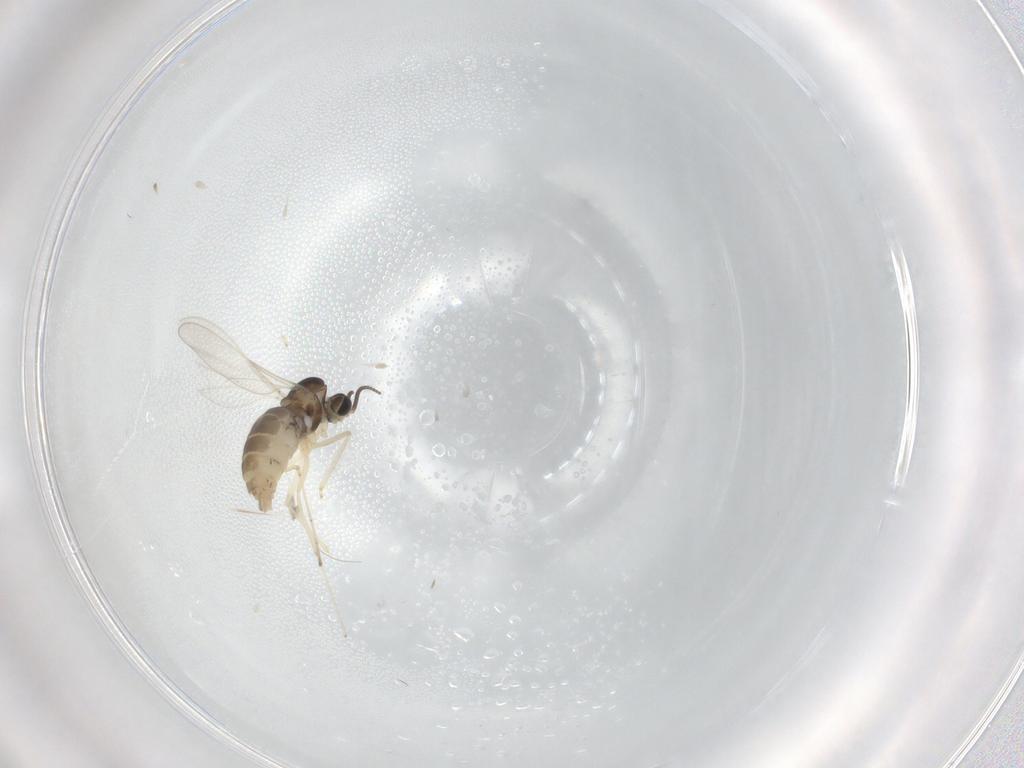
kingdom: Animalia
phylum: Arthropoda
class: Insecta
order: Diptera
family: Cecidomyiidae
